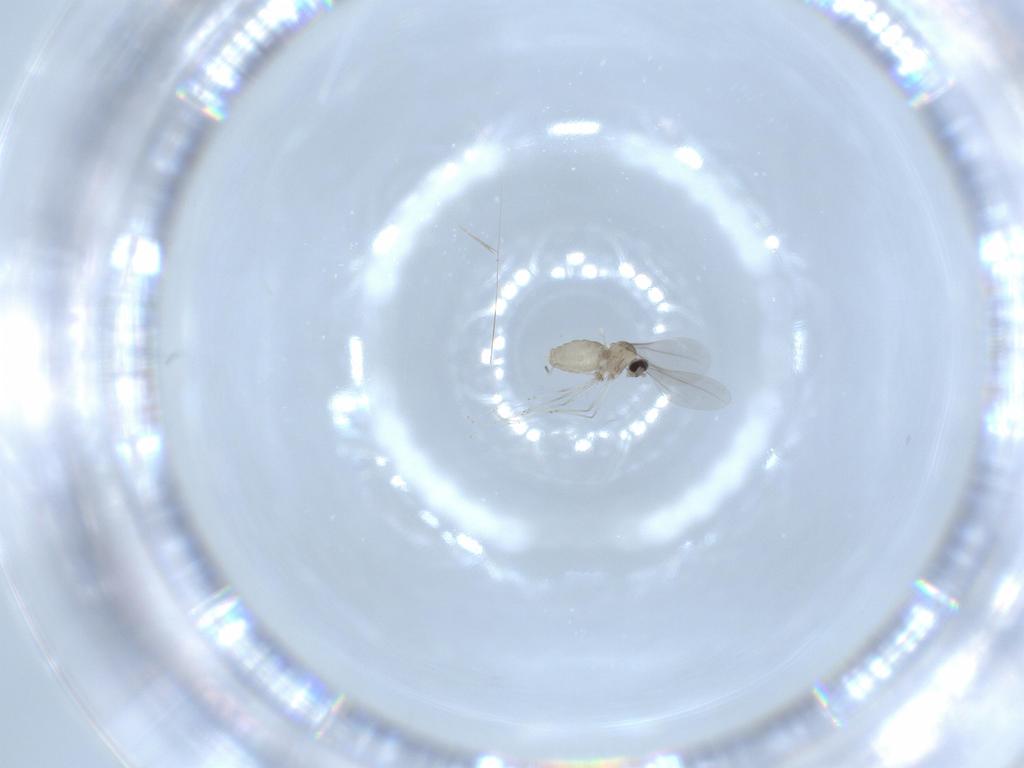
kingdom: Animalia
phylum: Arthropoda
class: Insecta
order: Diptera
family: Cecidomyiidae
